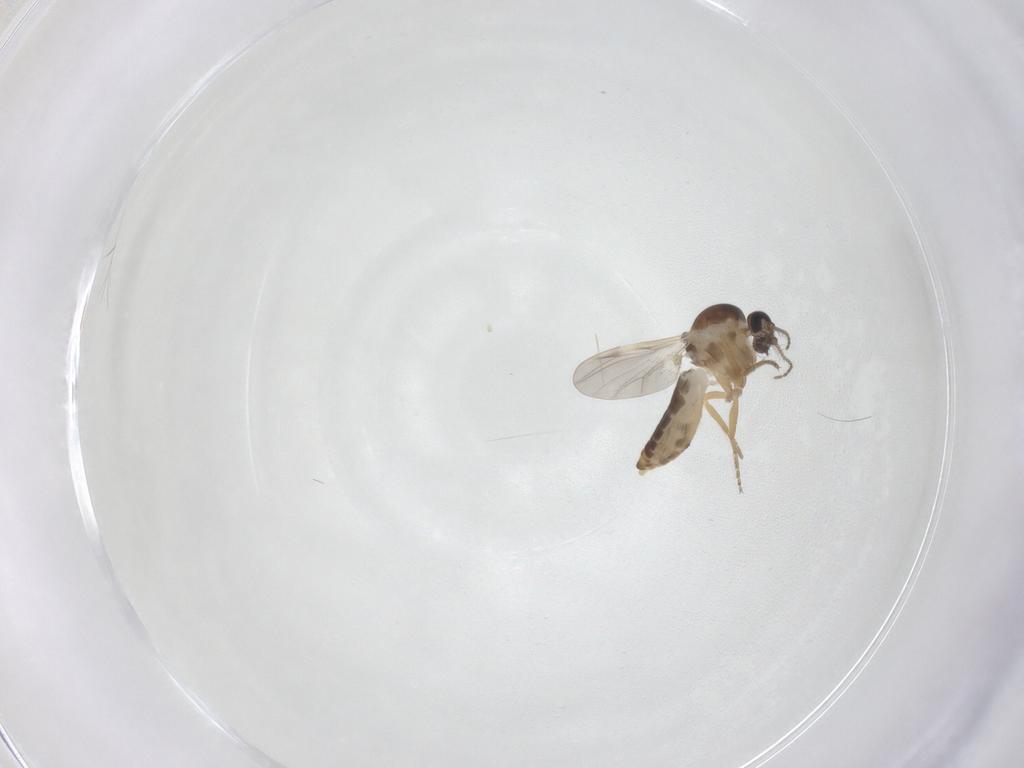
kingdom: Animalia
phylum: Arthropoda
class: Insecta
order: Diptera
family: Ceratopogonidae
